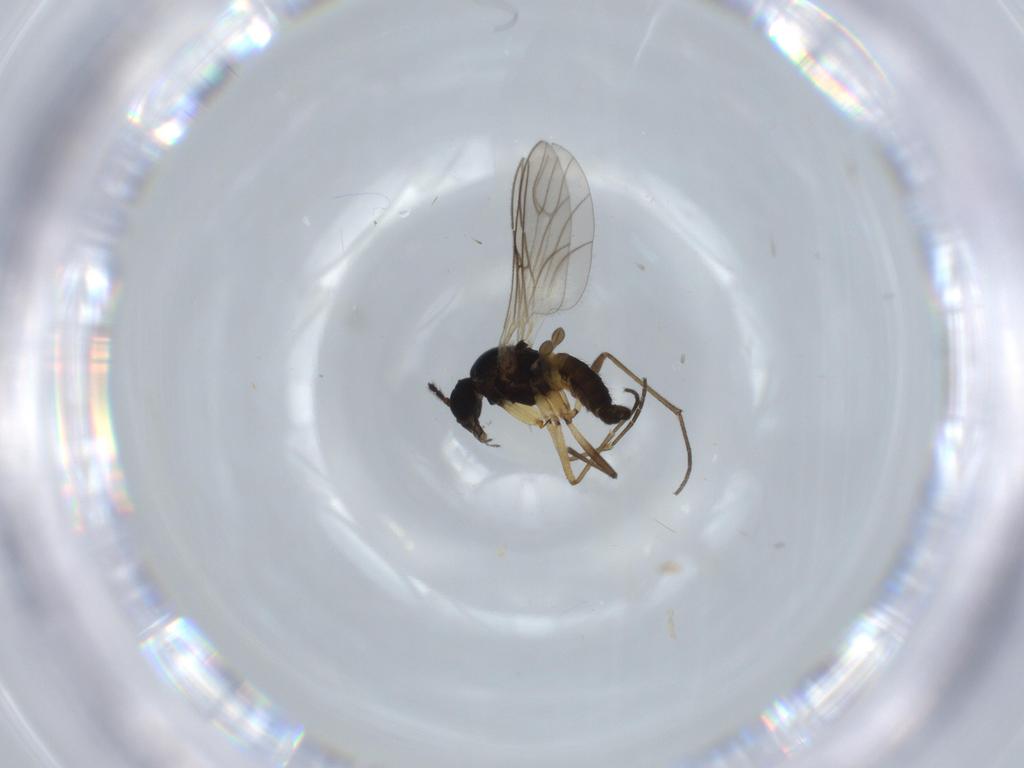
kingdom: Animalia
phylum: Arthropoda
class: Insecta
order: Diptera
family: Sciaridae
